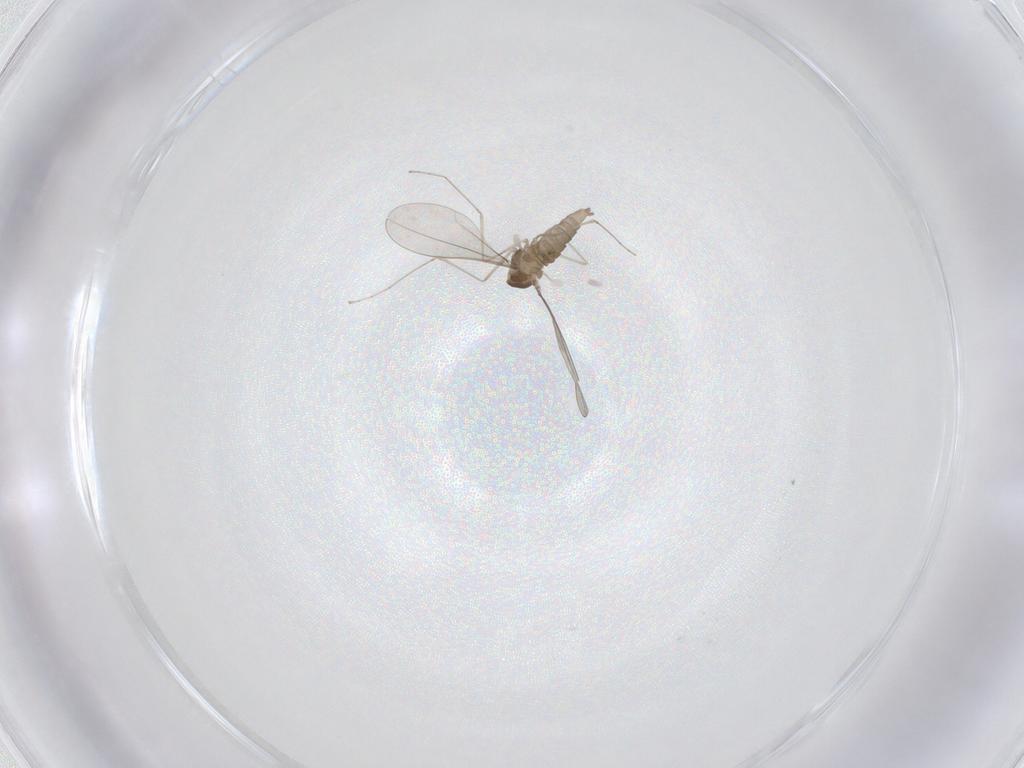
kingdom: Animalia
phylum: Arthropoda
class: Insecta
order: Diptera
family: Cecidomyiidae
